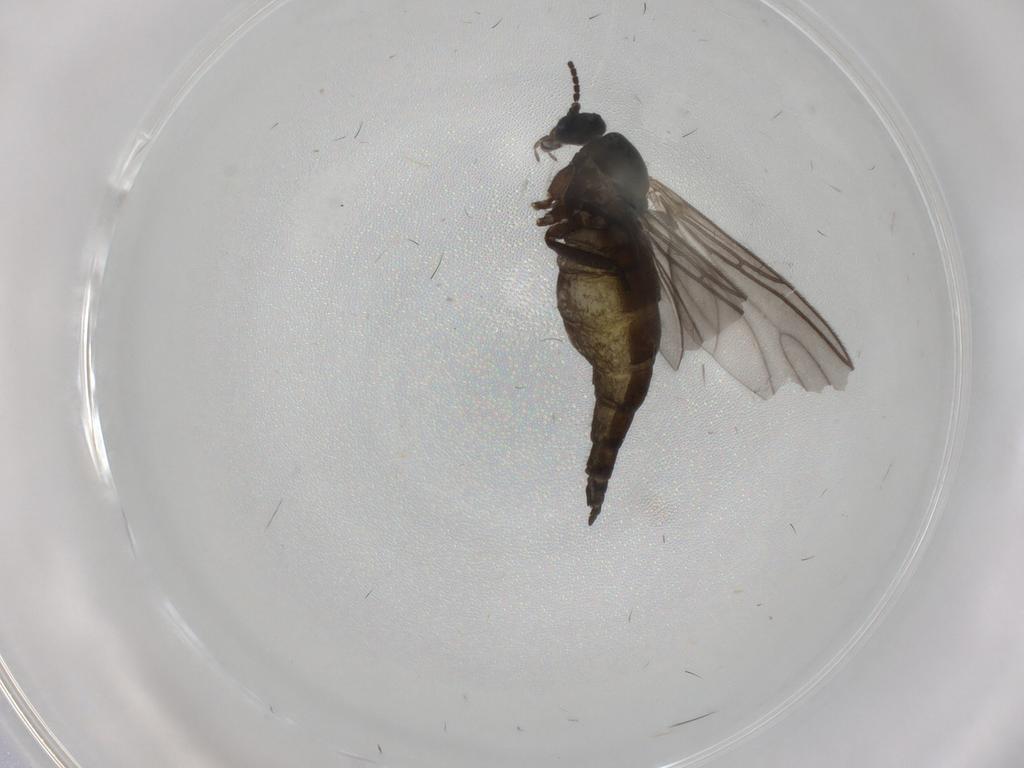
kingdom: Animalia
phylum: Arthropoda
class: Insecta
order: Diptera
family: Sciaridae
